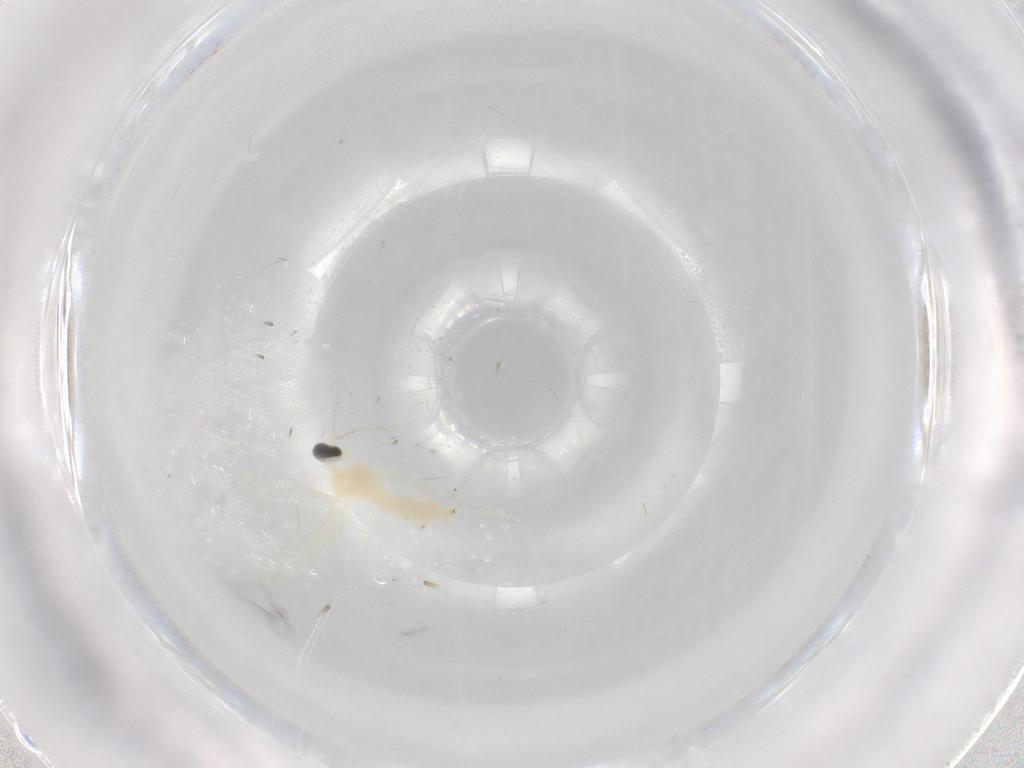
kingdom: Animalia
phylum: Arthropoda
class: Insecta
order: Diptera
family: Cecidomyiidae
